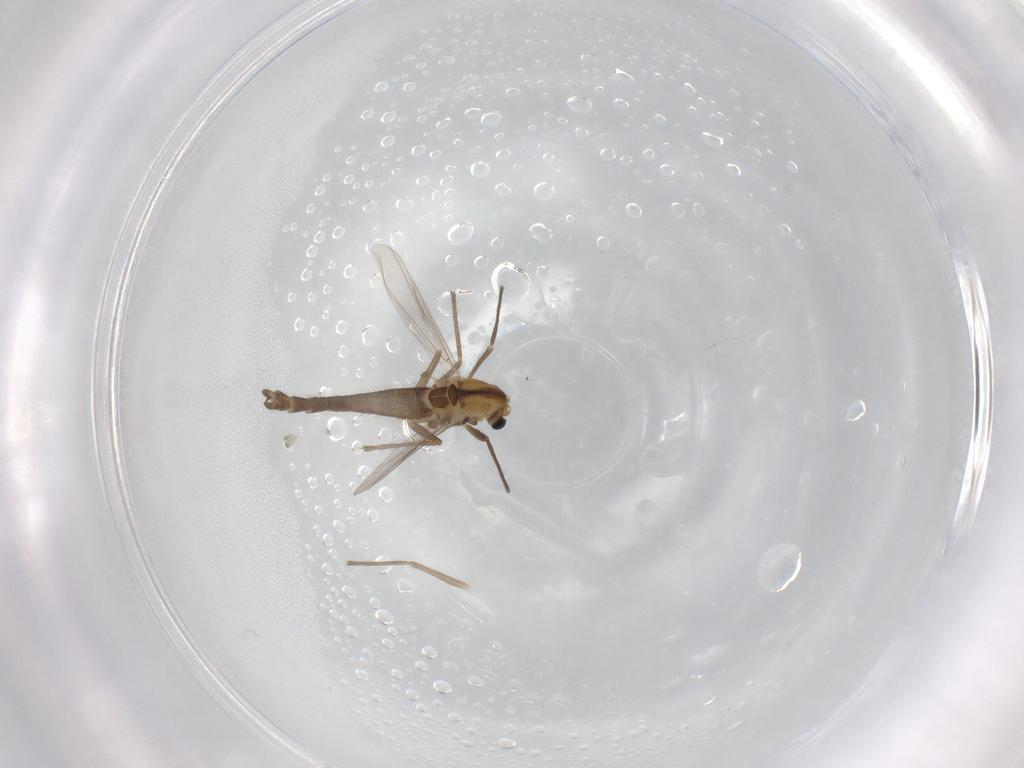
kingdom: Animalia
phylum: Arthropoda
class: Insecta
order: Diptera
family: Chironomidae
